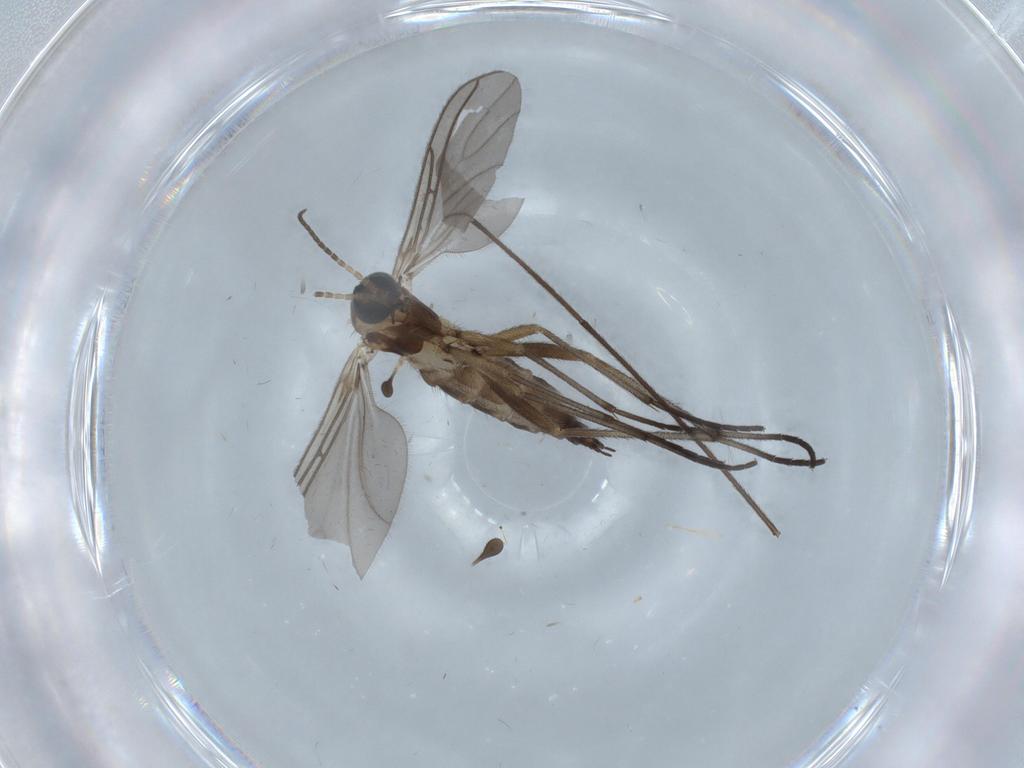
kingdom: Animalia
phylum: Arthropoda
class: Insecta
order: Diptera
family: Sciaridae
